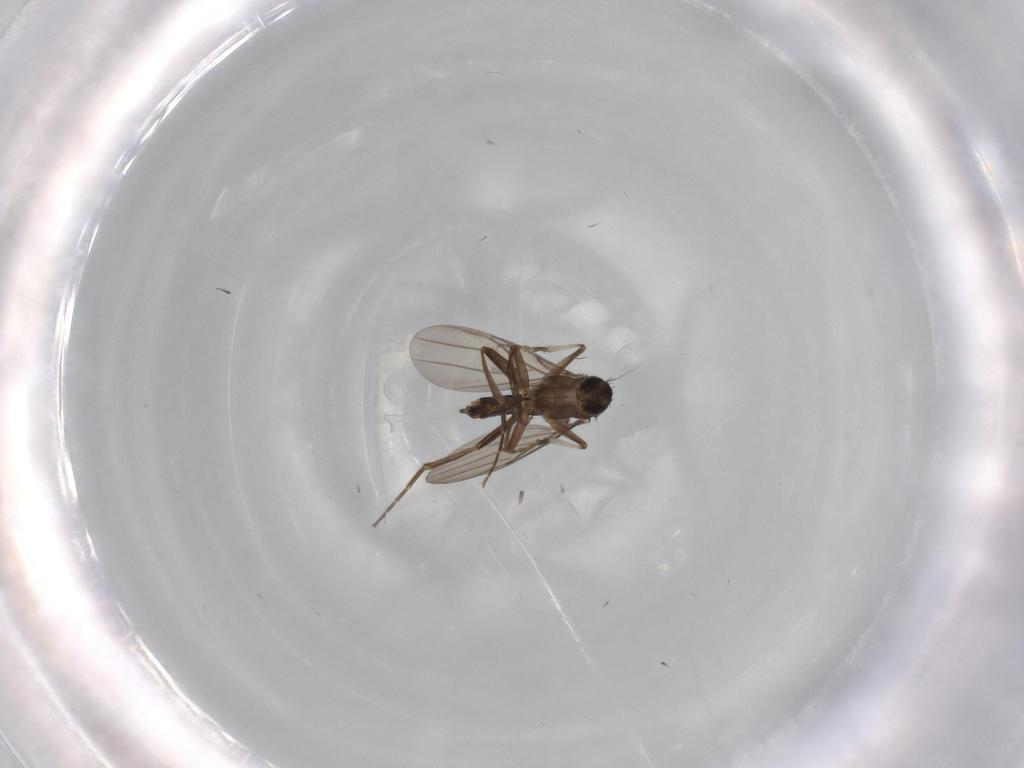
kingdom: Animalia
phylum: Arthropoda
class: Insecta
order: Diptera
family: Phoridae
